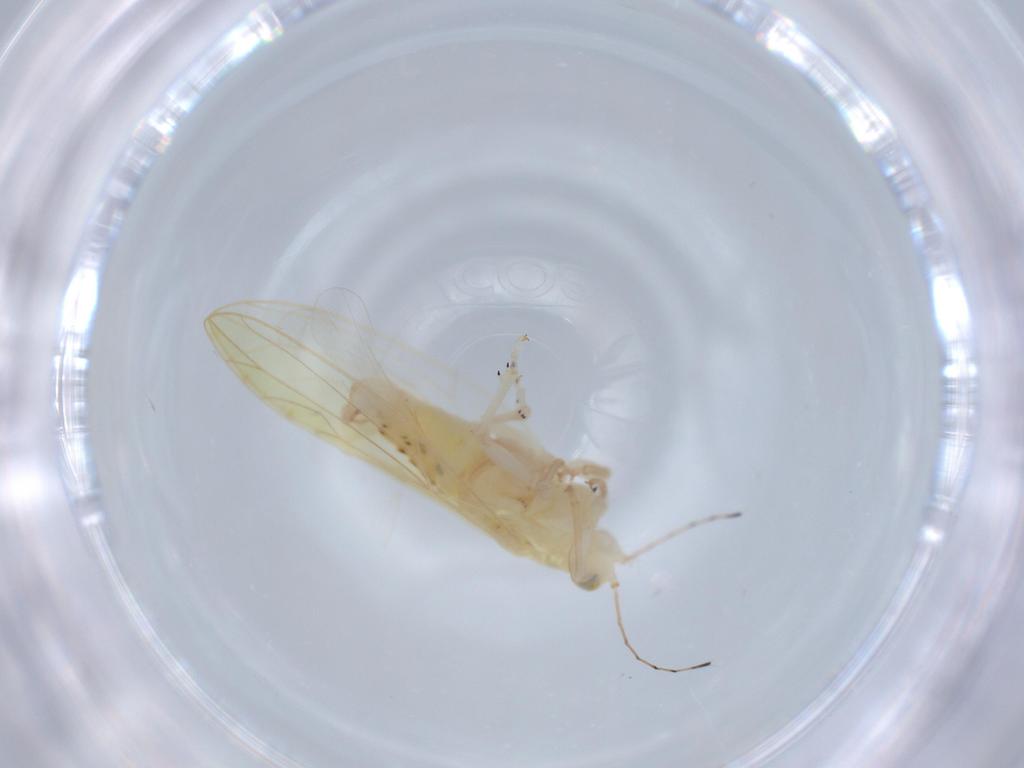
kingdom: Animalia
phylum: Arthropoda
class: Insecta
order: Hemiptera
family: Triozidae
